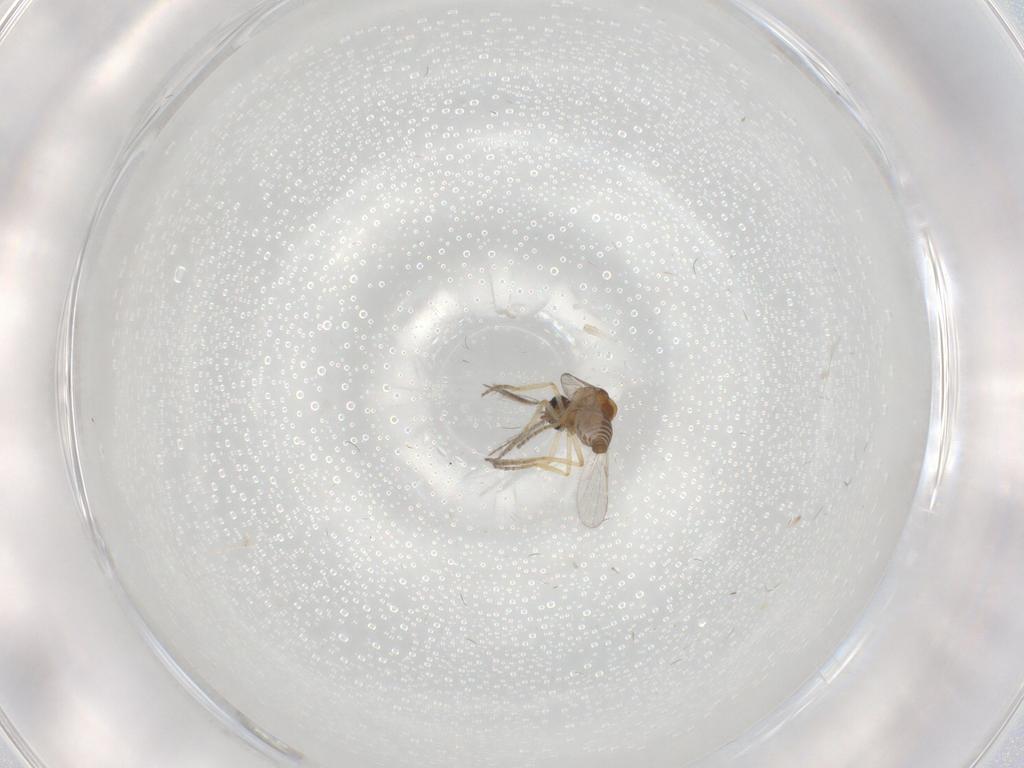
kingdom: Animalia
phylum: Arthropoda
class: Insecta
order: Diptera
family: Ceratopogonidae
